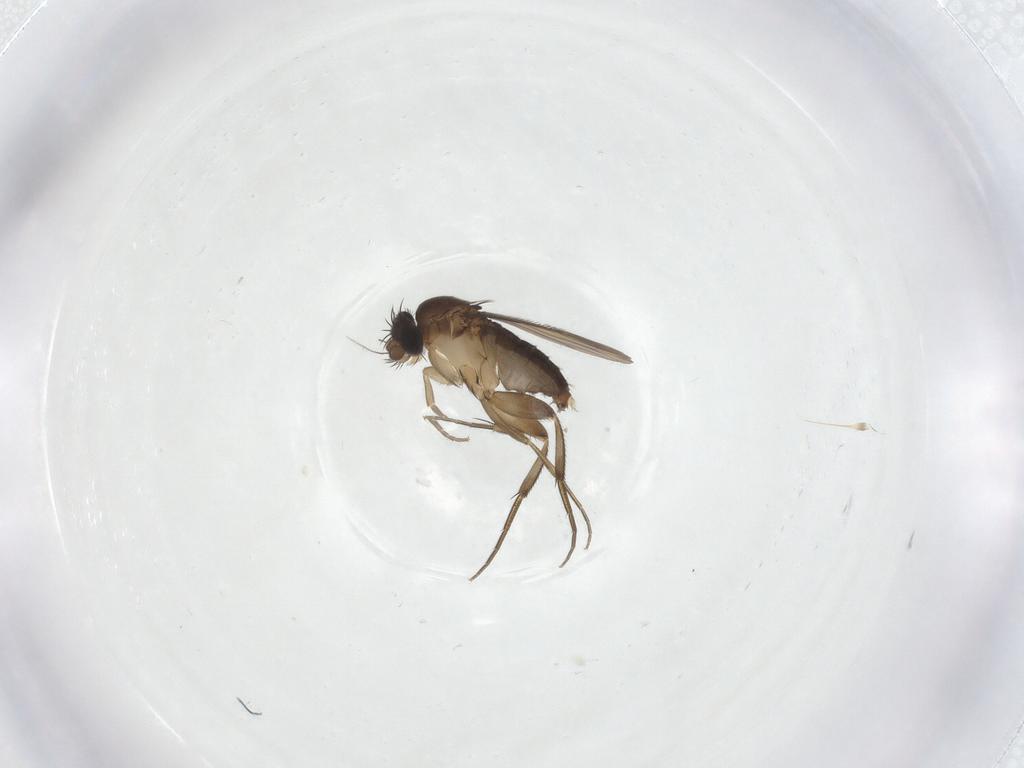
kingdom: Animalia
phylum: Arthropoda
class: Insecta
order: Diptera
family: Phoridae
